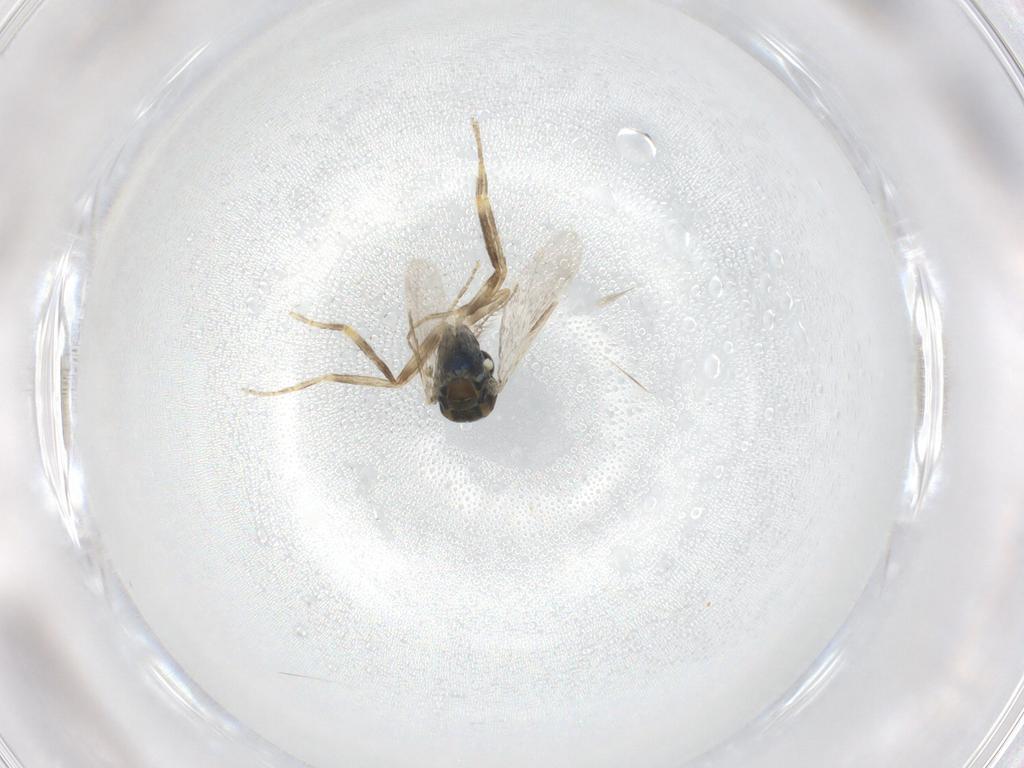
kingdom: Animalia
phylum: Arthropoda
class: Insecta
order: Diptera
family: Ceratopogonidae
